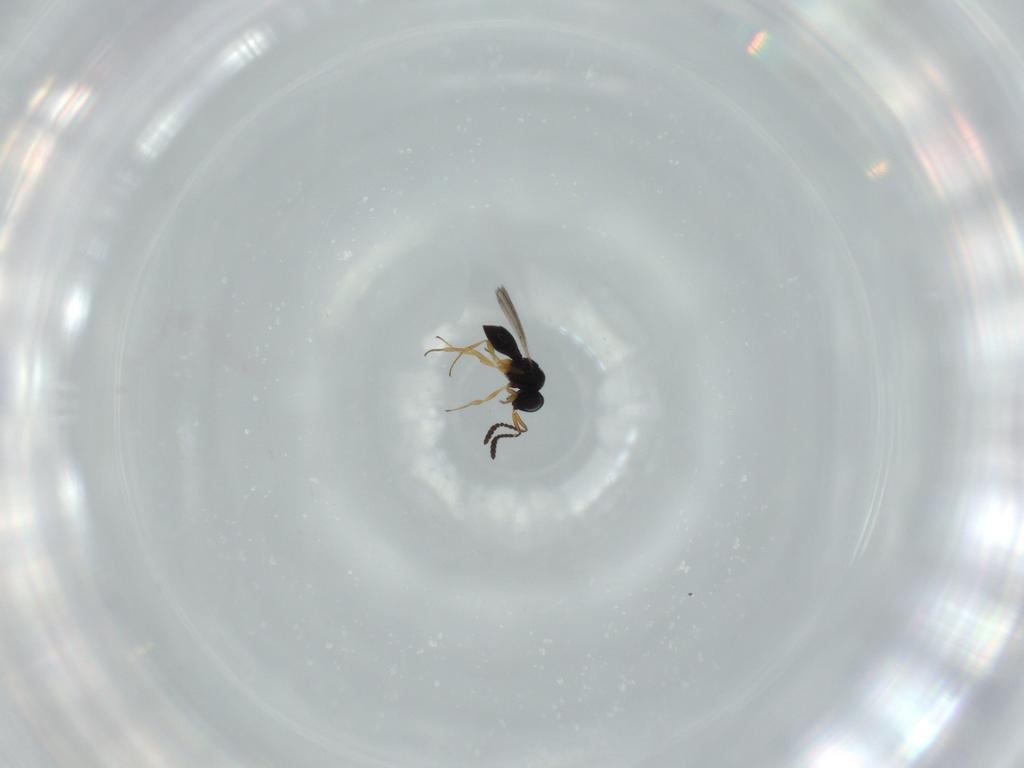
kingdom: Animalia
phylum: Arthropoda
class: Insecta
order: Hymenoptera
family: Scelionidae
